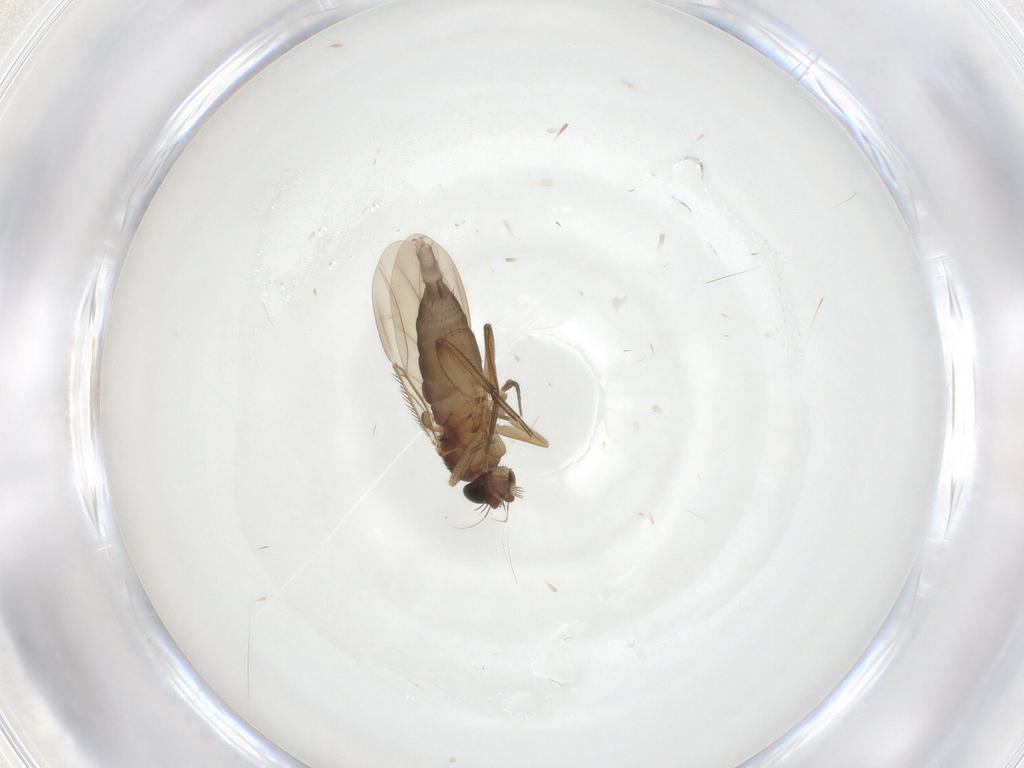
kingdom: Animalia
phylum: Arthropoda
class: Insecta
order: Diptera
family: Phoridae
